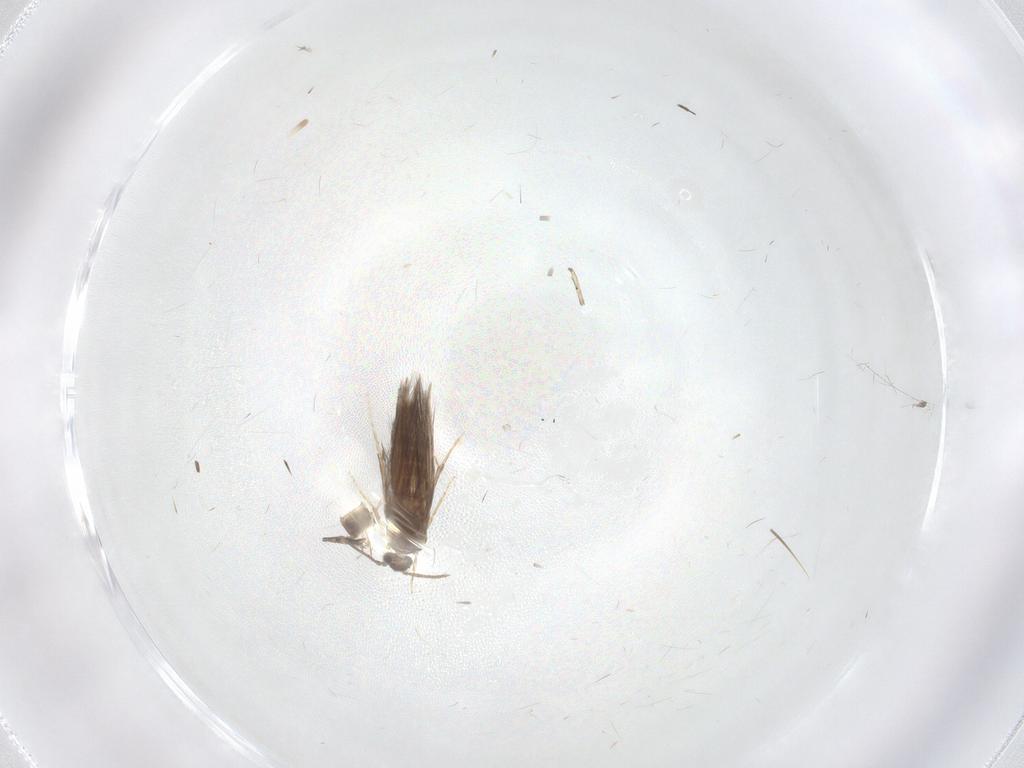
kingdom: Animalia
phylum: Arthropoda
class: Insecta
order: Trichoptera
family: Hydroptilidae
